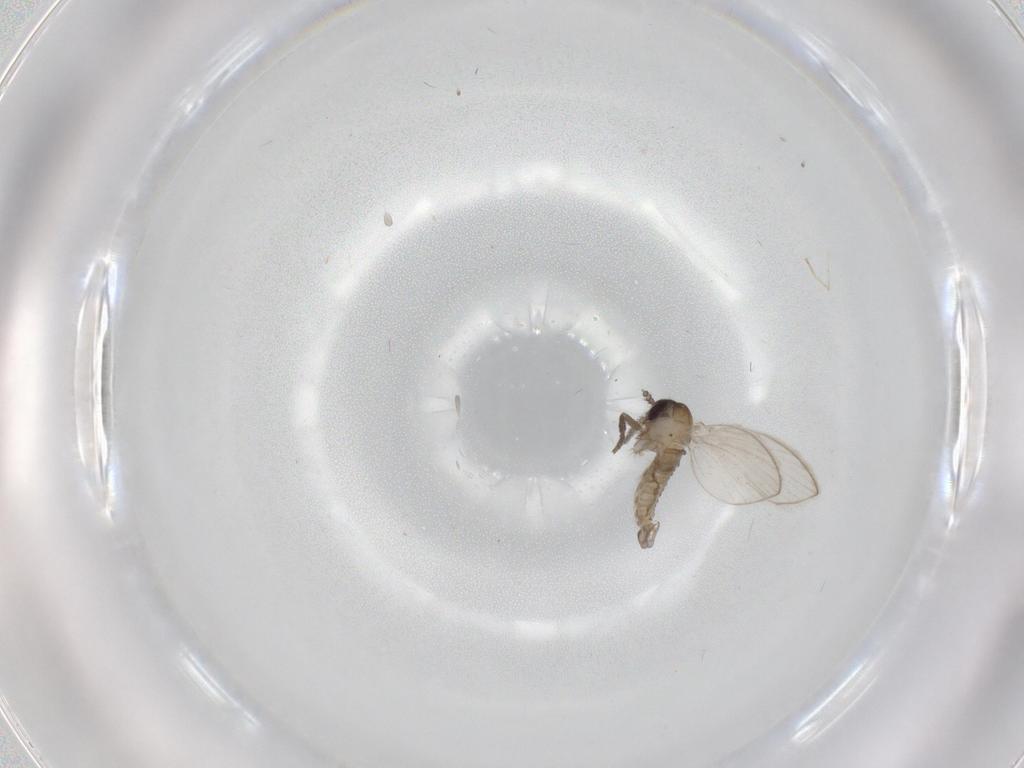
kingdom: Animalia
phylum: Arthropoda
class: Insecta
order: Diptera
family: Psychodidae
